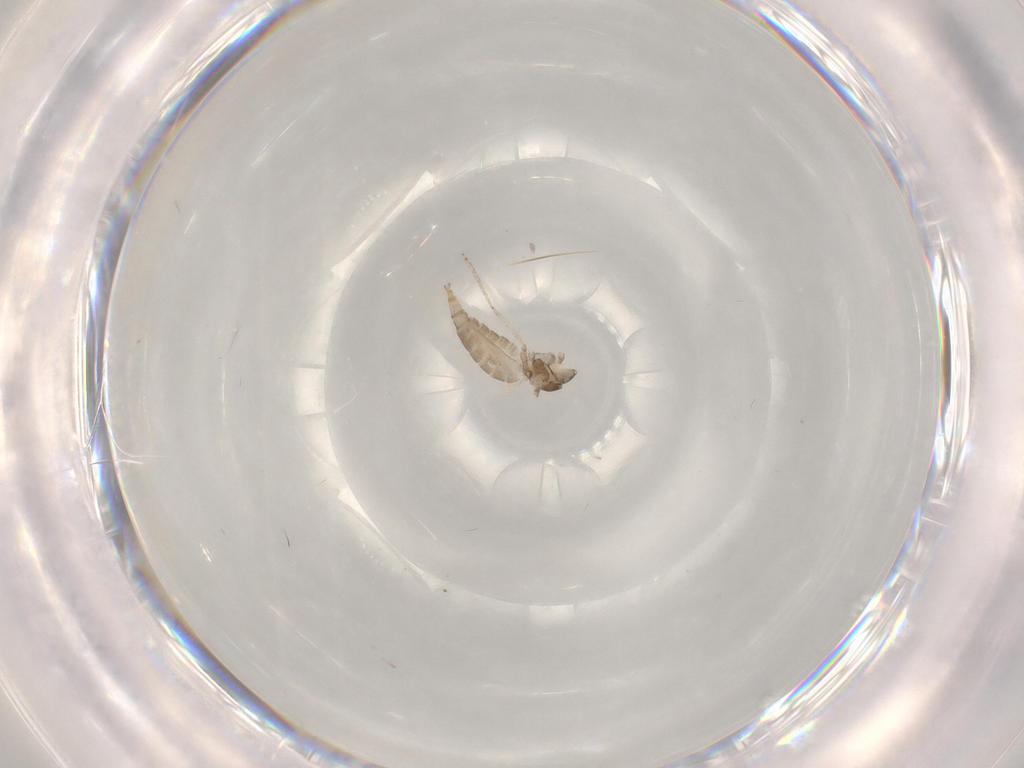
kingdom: Animalia
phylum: Arthropoda
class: Insecta
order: Diptera
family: Cecidomyiidae
